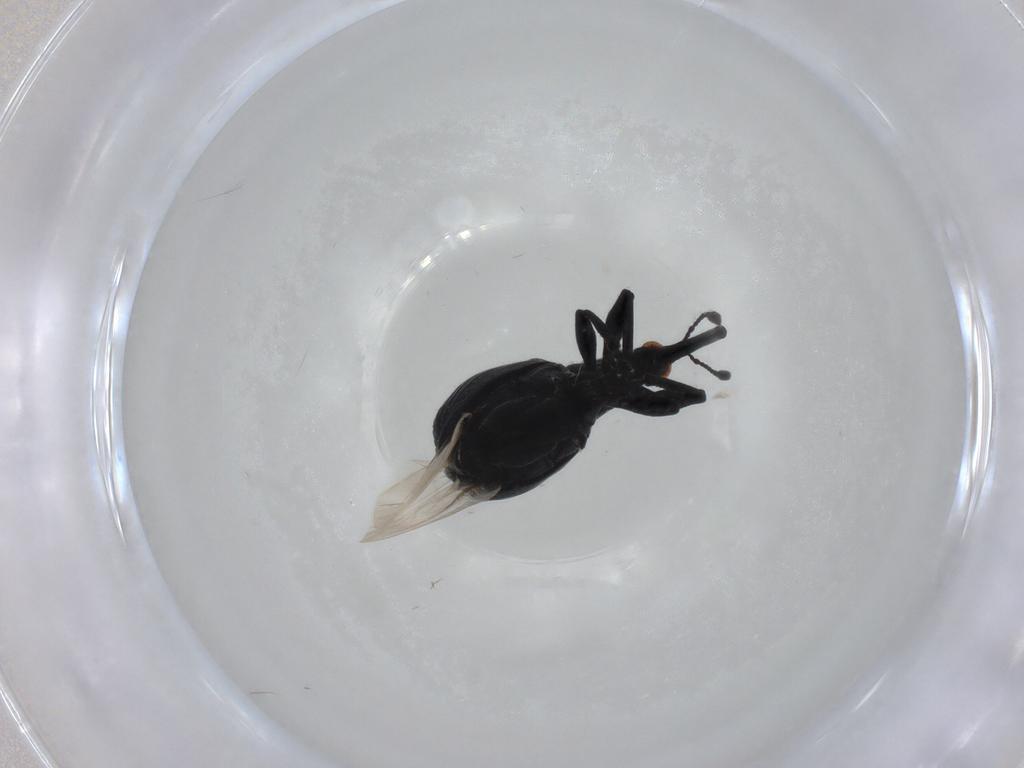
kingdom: Animalia
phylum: Arthropoda
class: Insecta
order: Coleoptera
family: Brentidae
